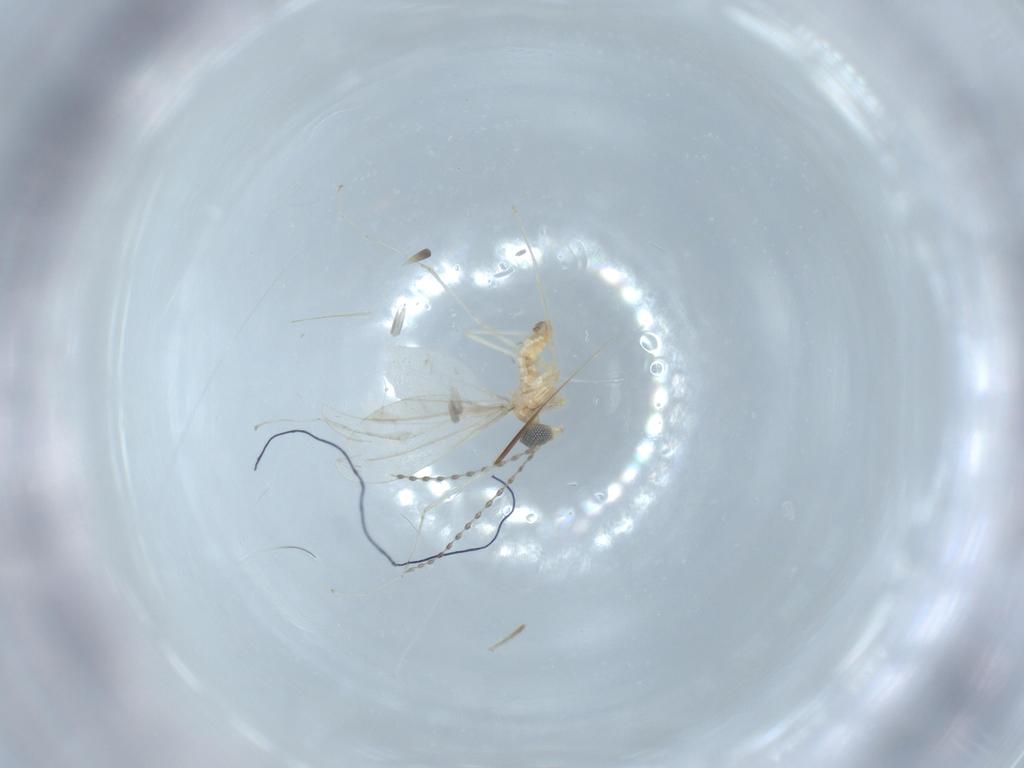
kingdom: Animalia
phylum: Arthropoda
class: Insecta
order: Diptera
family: Cecidomyiidae
